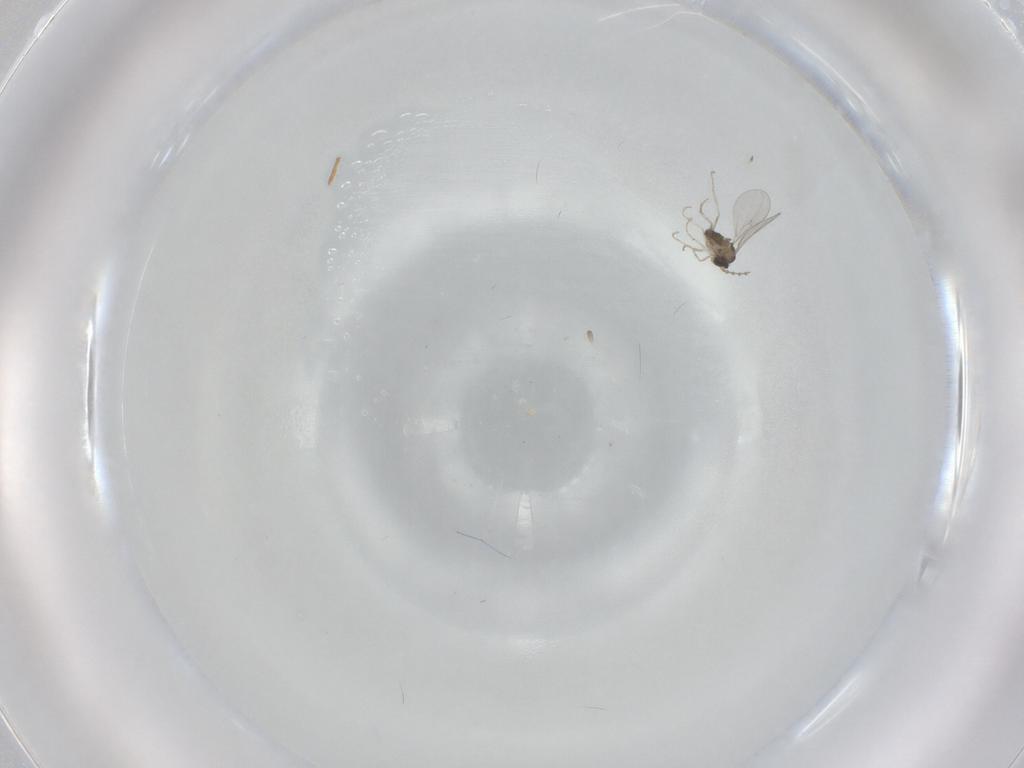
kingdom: Animalia
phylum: Arthropoda
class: Insecta
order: Diptera
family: Cecidomyiidae
